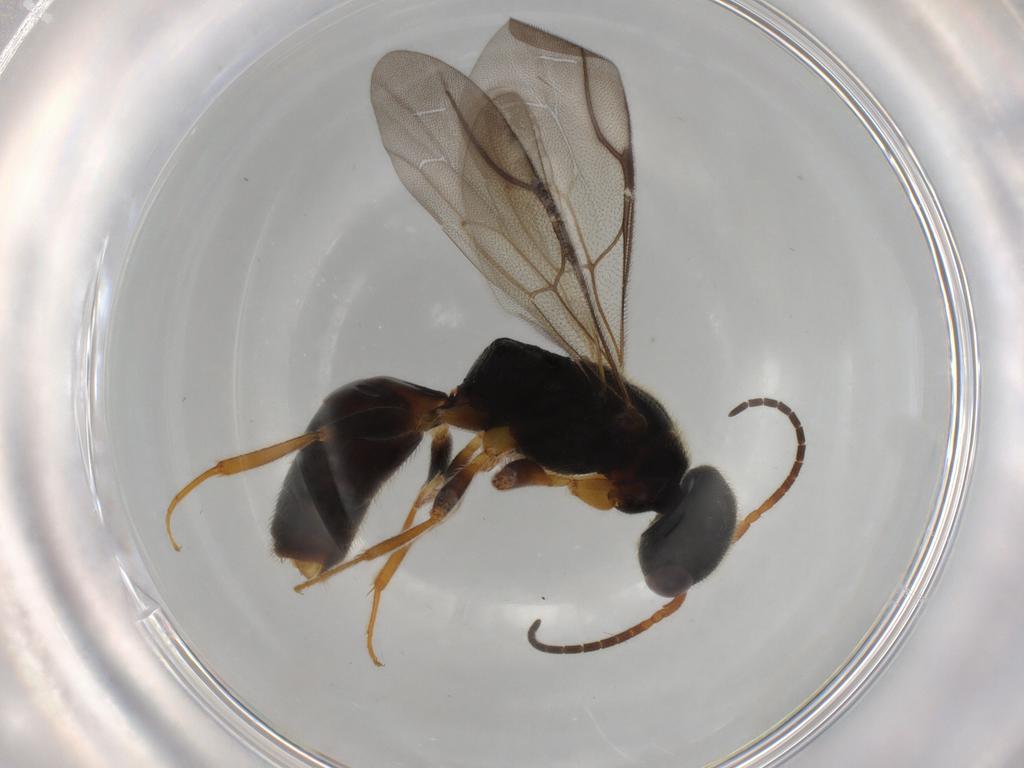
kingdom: Animalia
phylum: Arthropoda
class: Insecta
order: Hymenoptera
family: Bethylidae
